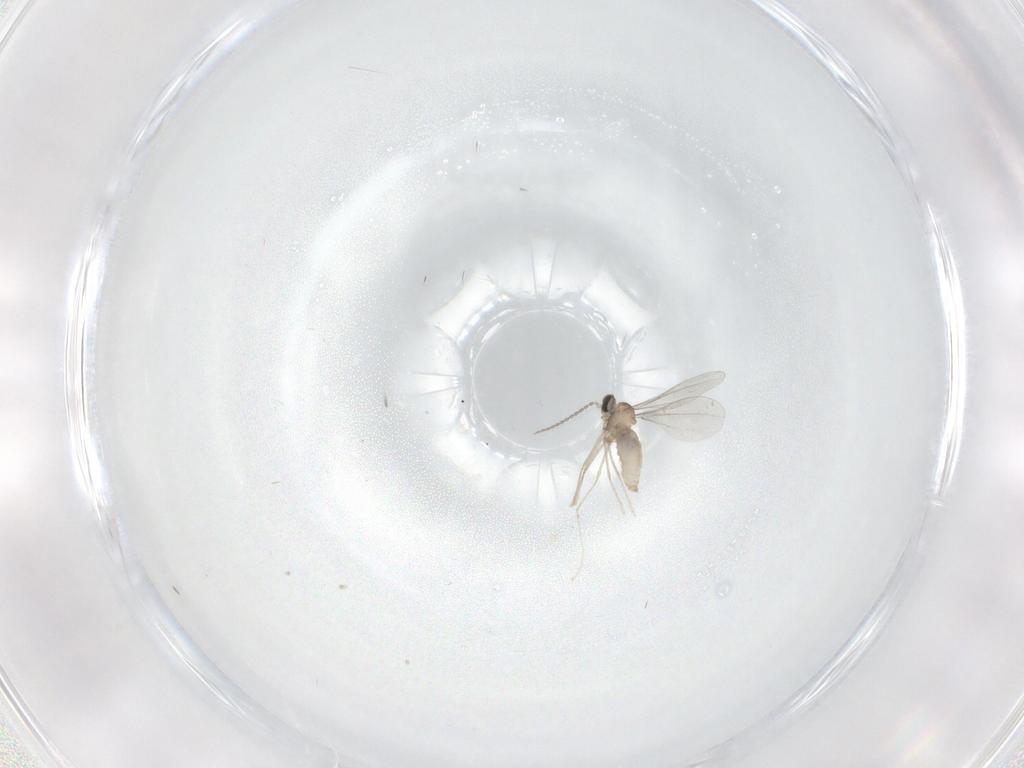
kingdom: Animalia
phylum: Arthropoda
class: Insecta
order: Diptera
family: Cecidomyiidae
